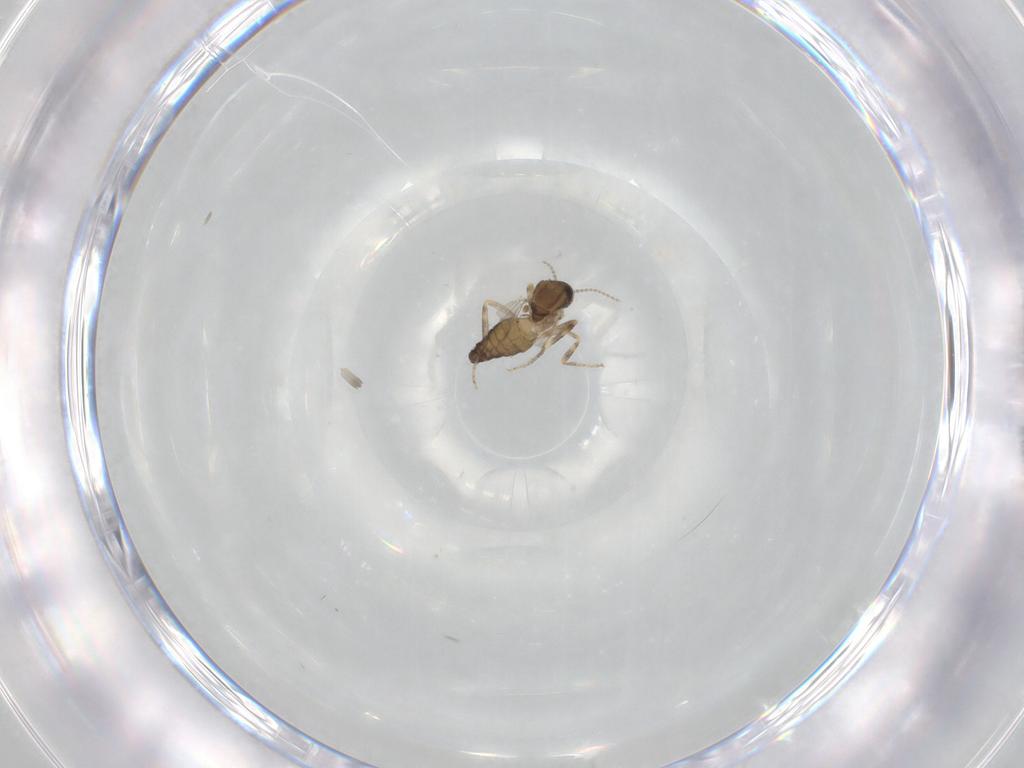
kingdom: Animalia
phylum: Arthropoda
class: Insecta
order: Diptera
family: Ceratopogonidae
